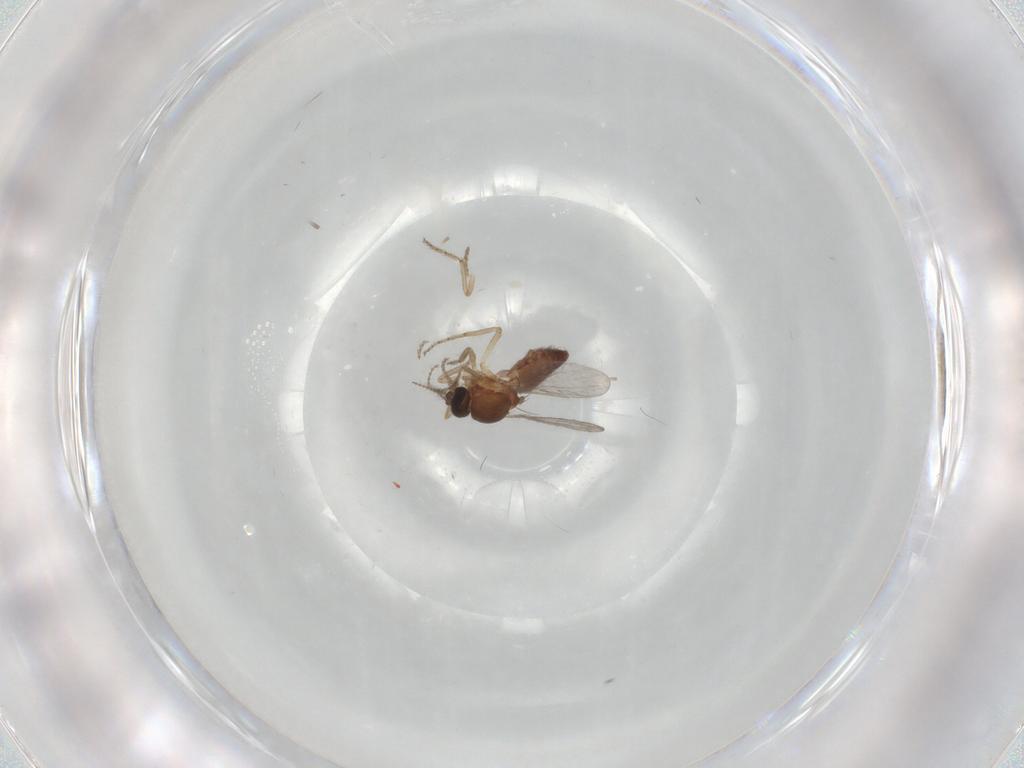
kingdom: Animalia
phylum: Arthropoda
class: Insecta
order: Diptera
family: Ceratopogonidae
